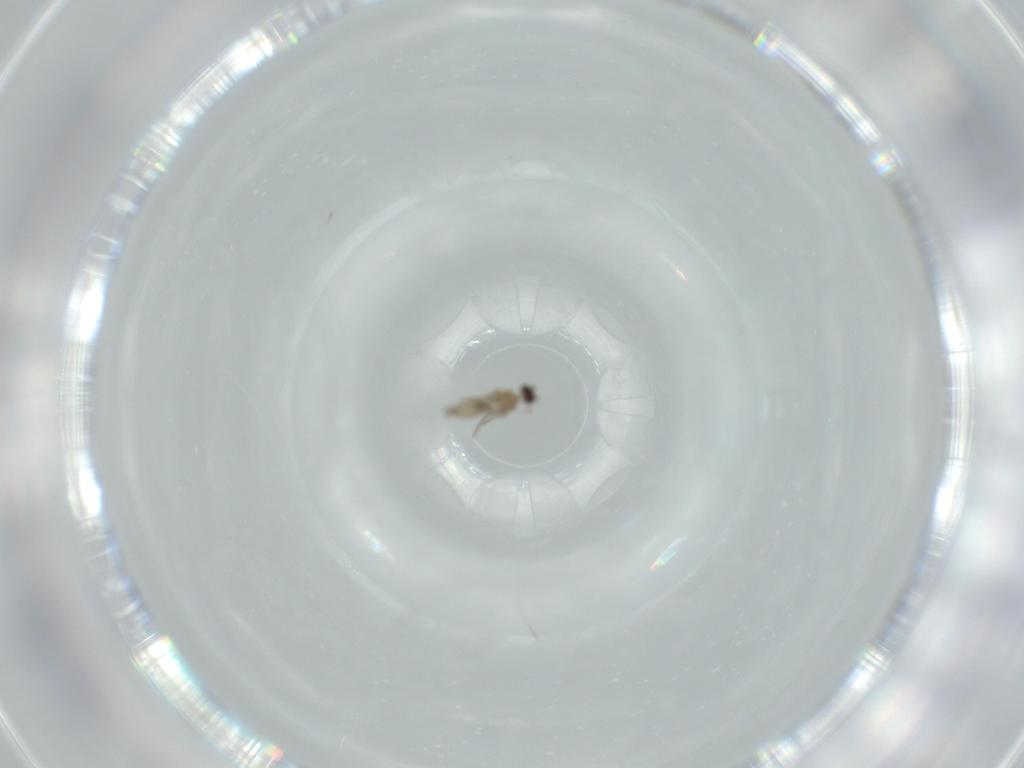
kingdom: Animalia
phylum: Arthropoda
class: Insecta
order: Diptera
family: Cecidomyiidae
